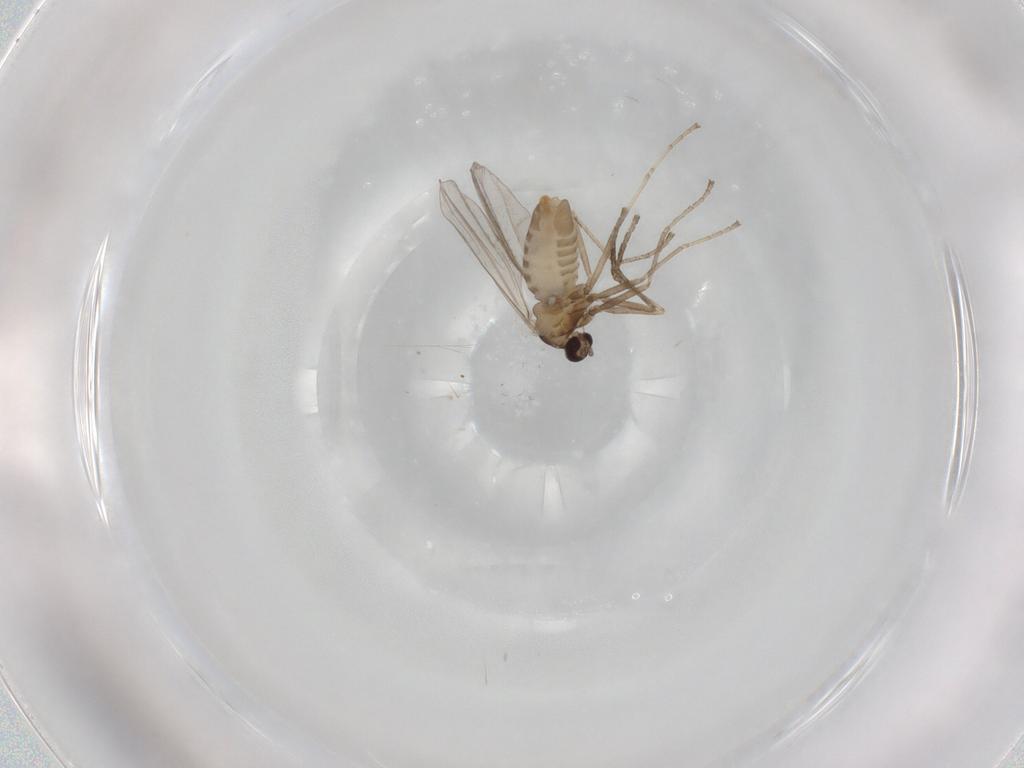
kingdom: Animalia
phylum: Arthropoda
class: Insecta
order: Diptera
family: Cecidomyiidae
